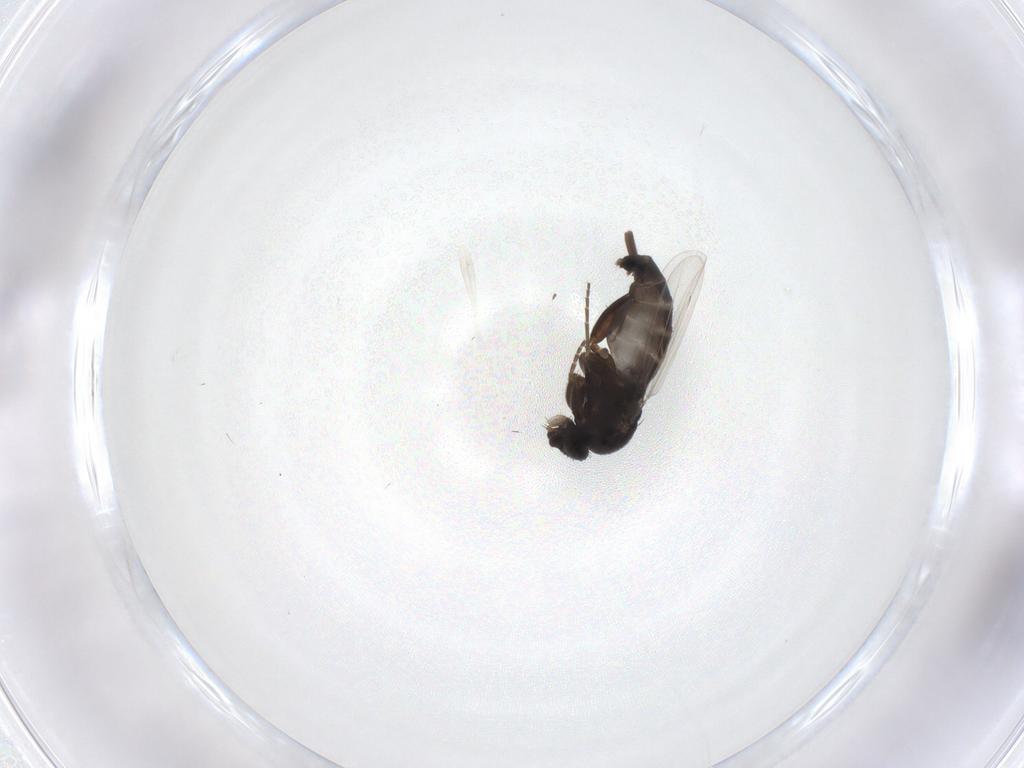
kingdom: Animalia
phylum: Arthropoda
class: Insecta
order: Diptera
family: Phoridae
